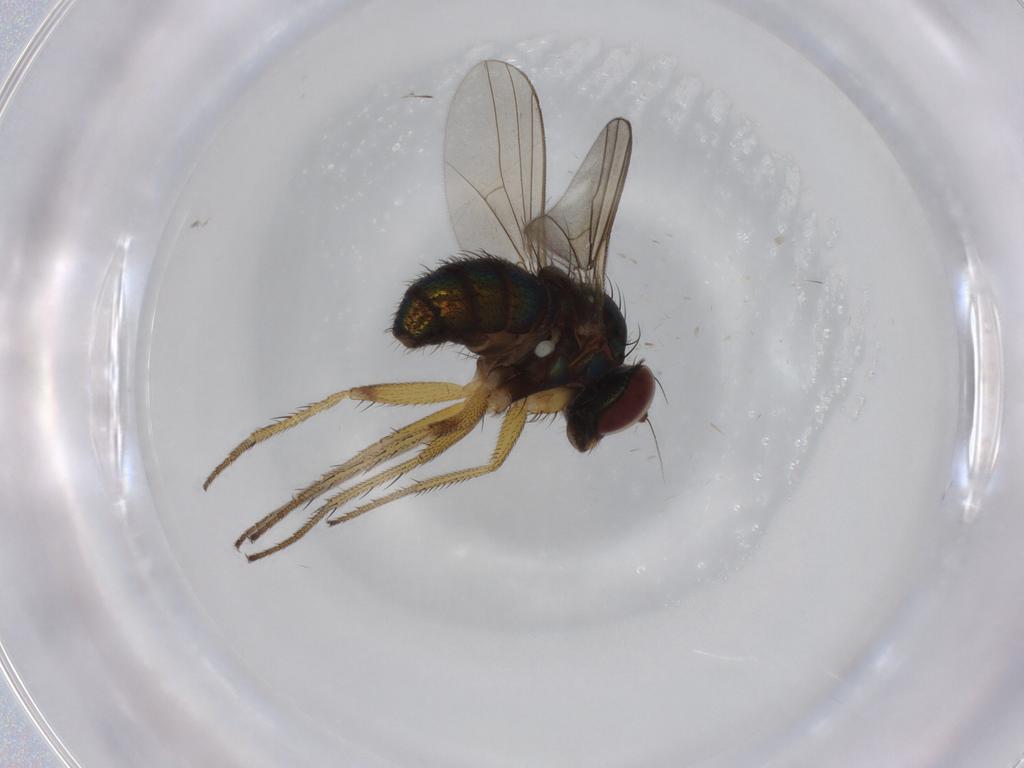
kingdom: Animalia
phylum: Arthropoda
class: Insecta
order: Diptera
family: Dolichopodidae
